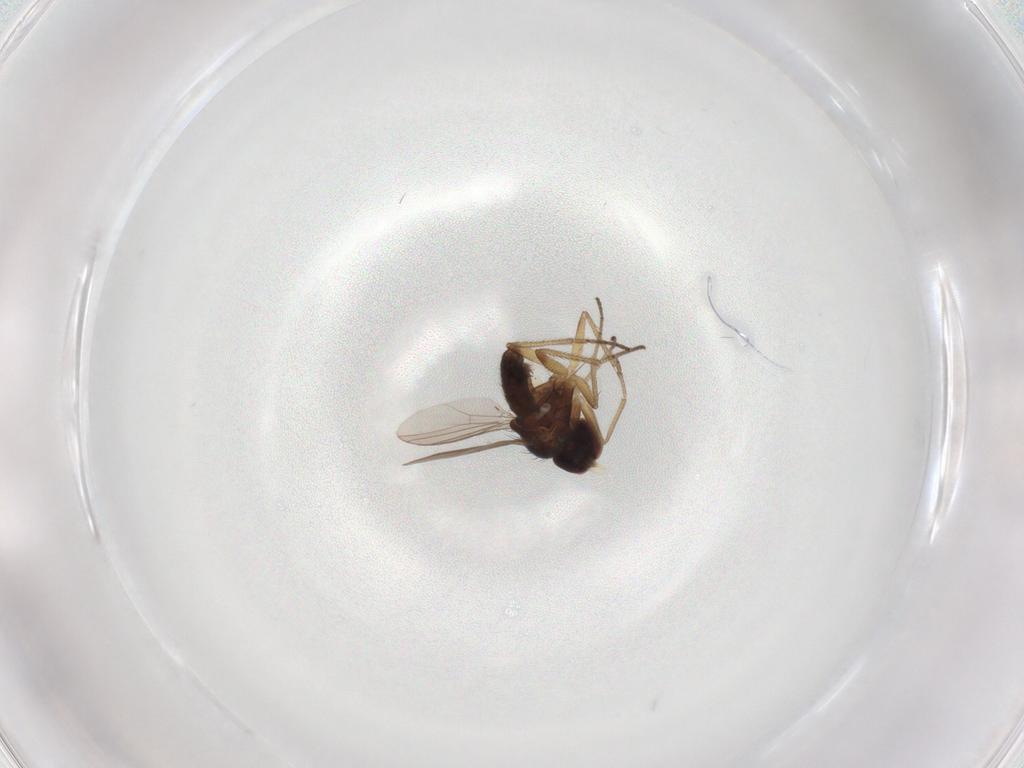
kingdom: Animalia
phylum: Arthropoda
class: Insecta
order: Diptera
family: Dolichopodidae
